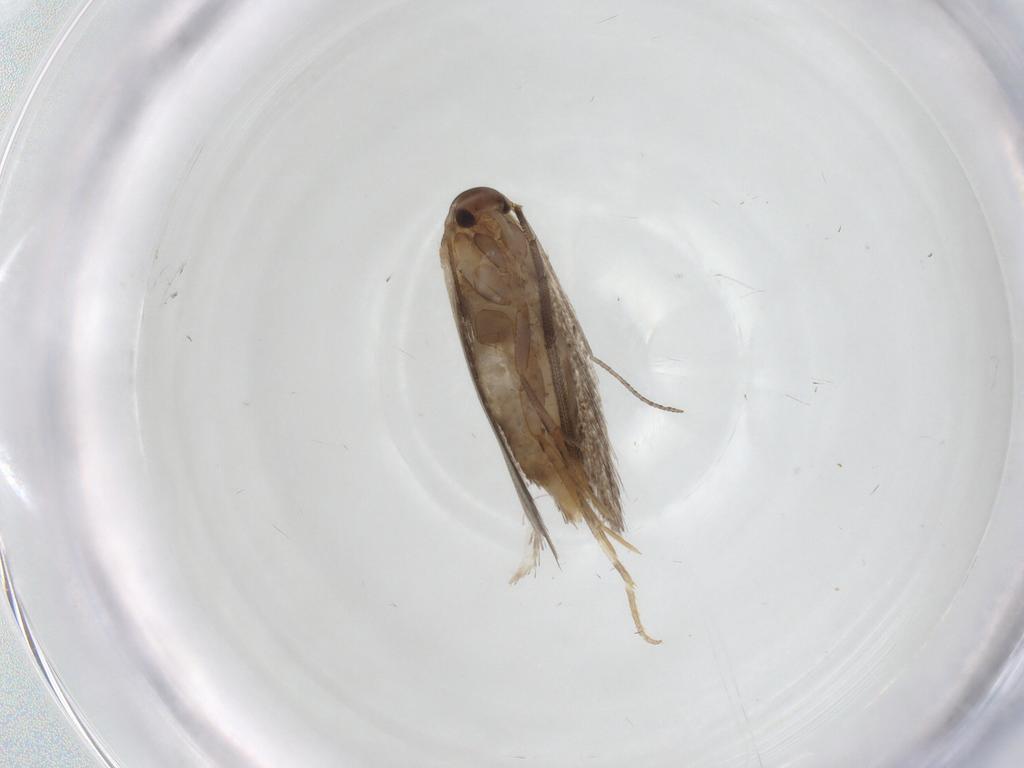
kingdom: Animalia
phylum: Arthropoda
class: Insecta
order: Lepidoptera
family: Elachistidae
